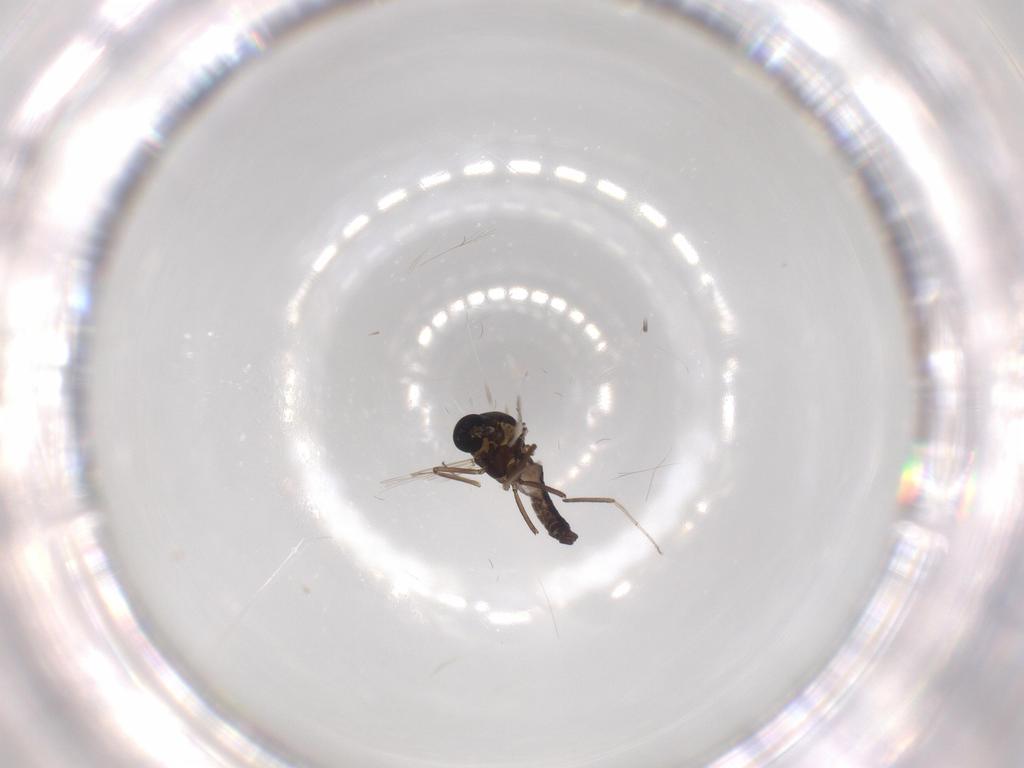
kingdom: Animalia
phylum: Arthropoda
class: Insecta
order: Diptera
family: Ceratopogonidae
